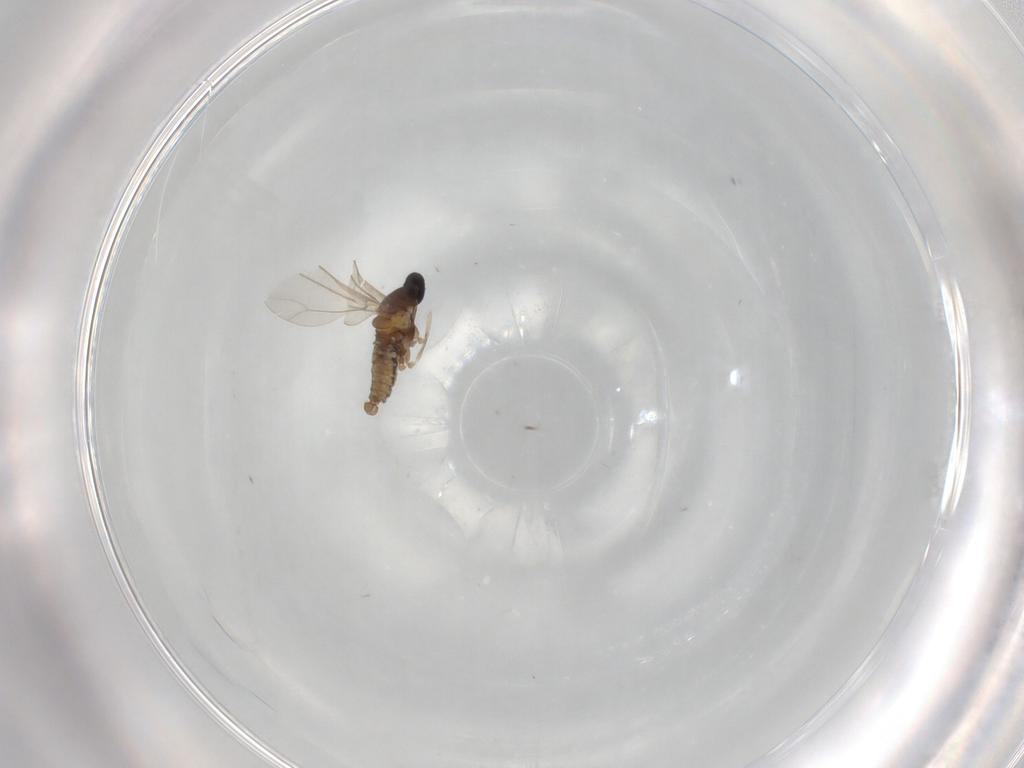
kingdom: Animalia
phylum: Arthropoda
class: Insecta
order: Diptera
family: Cecidomyiidae
